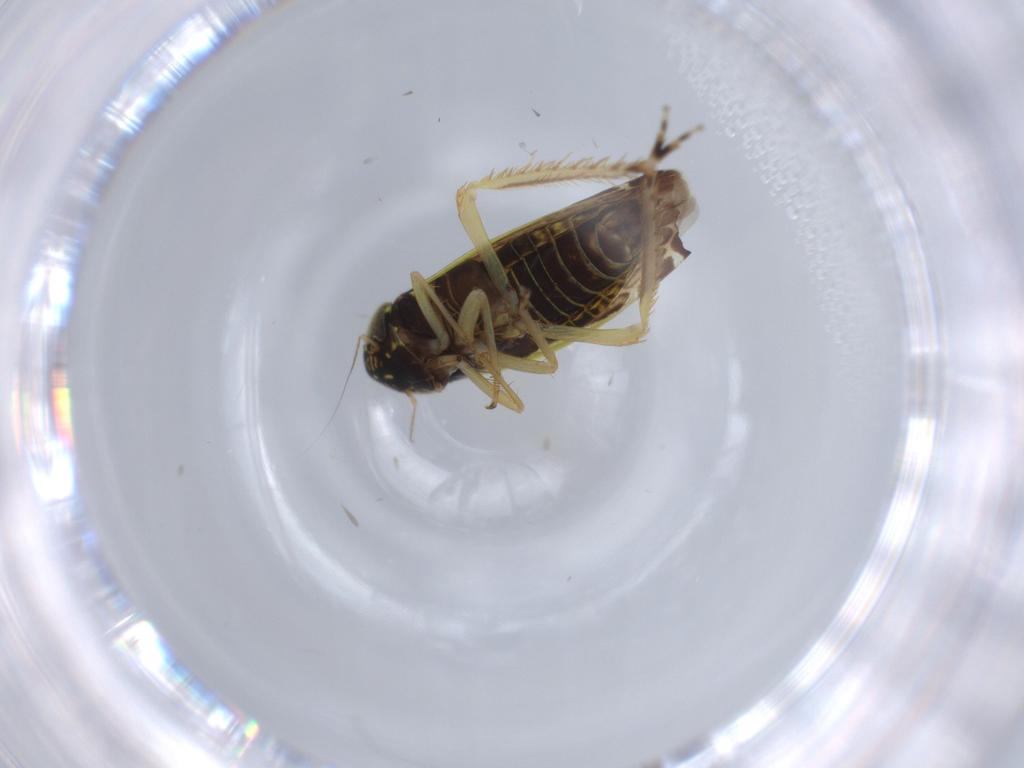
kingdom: Animalia
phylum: Arthropoda
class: Insecta
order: Hemiptera
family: Cicadellidae
